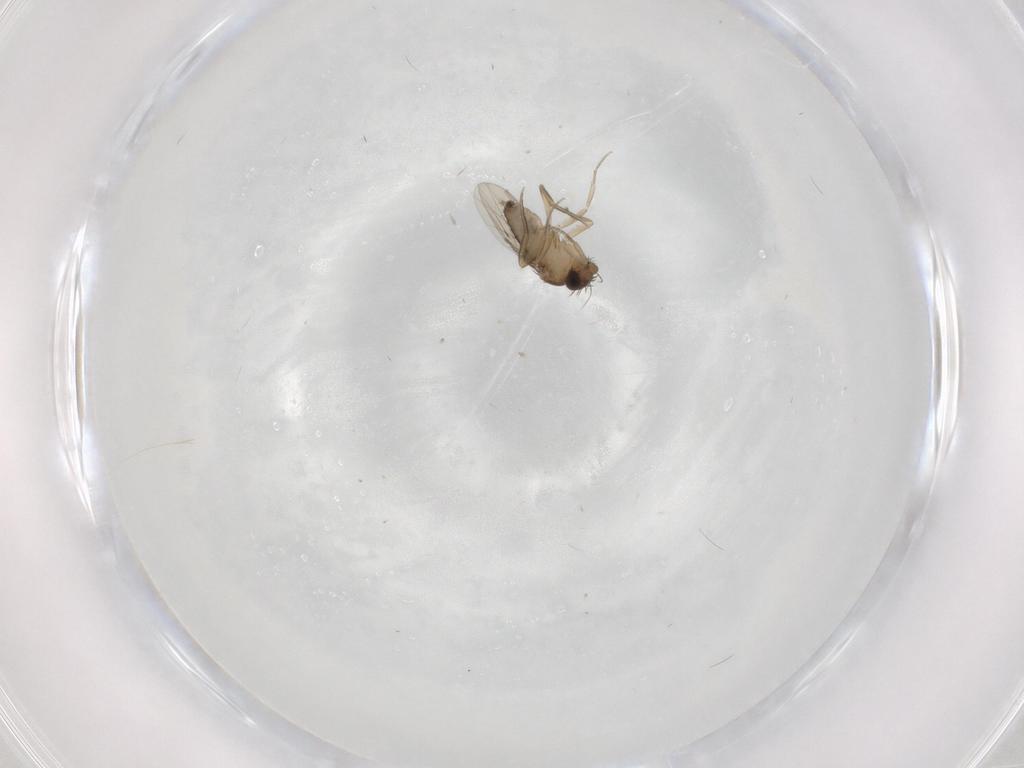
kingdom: Animalia
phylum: Arthropoda
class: Insecta
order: Diptera
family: Phoridae
